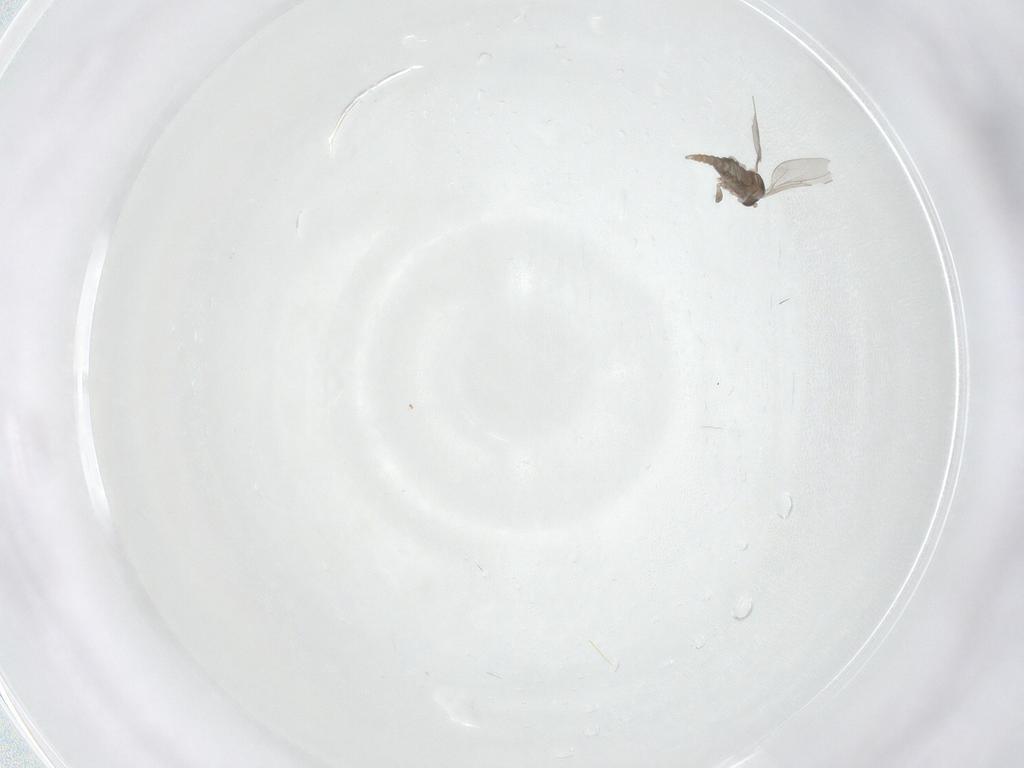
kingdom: Animalia
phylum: Arthropoda
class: Insecta
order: Diptera
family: Cecidomyiidae
